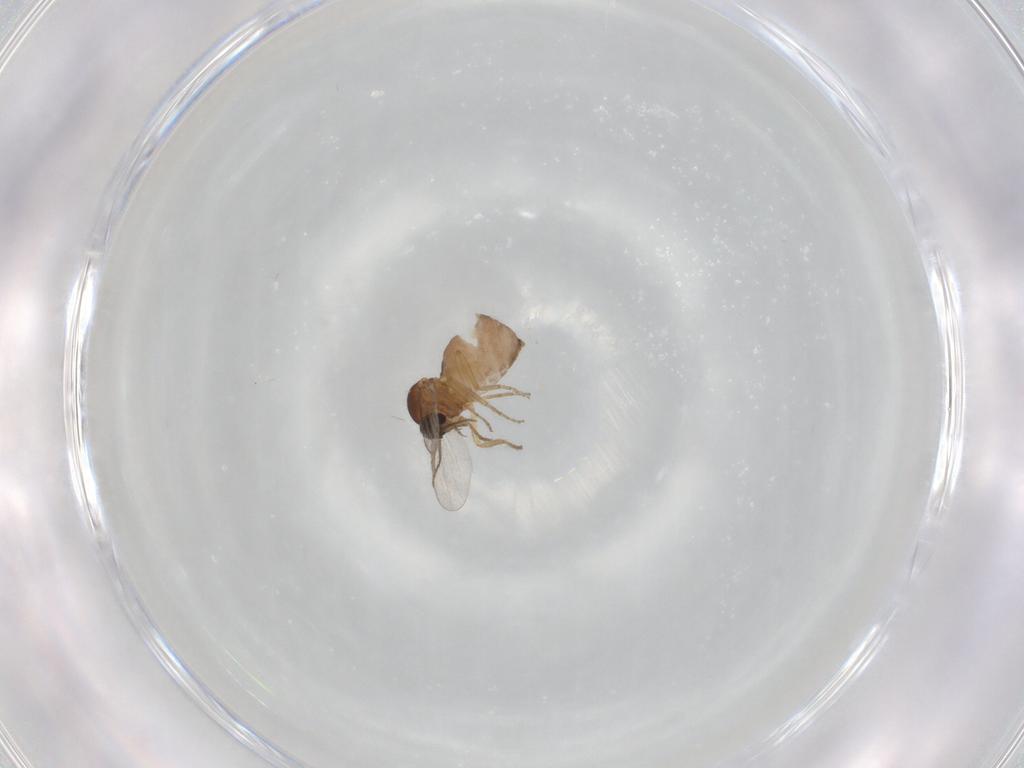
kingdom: Animalia
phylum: Arthropoda
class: Insecta
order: Diptera
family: Ceratopogonidae
